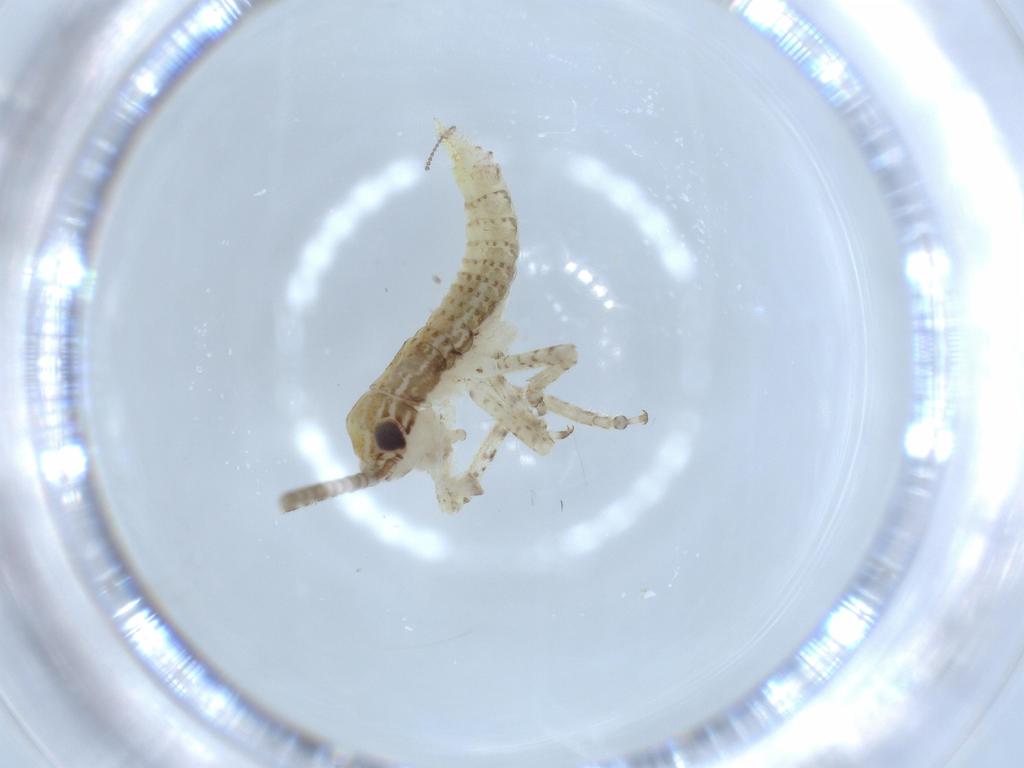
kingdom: Animalia
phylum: Arthropoda
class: Insecta
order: Orthoptera
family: Gryllidae
